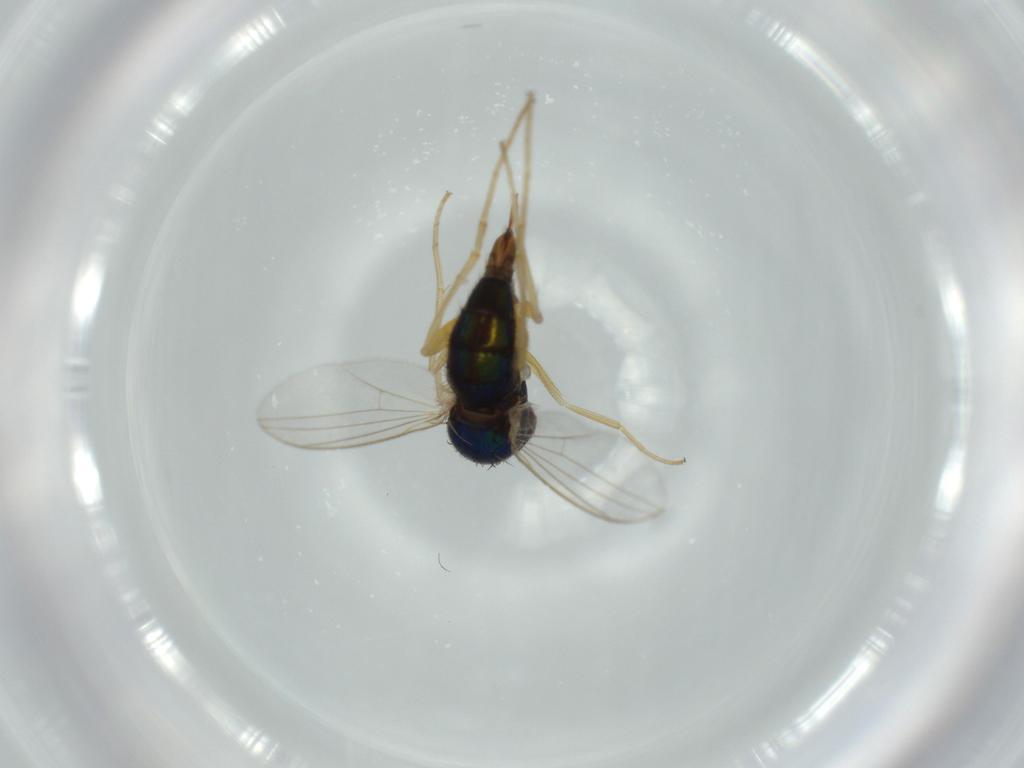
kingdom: Animalia
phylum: Arthropoda
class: Insecta
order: Diptera
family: Dolichopodidae
